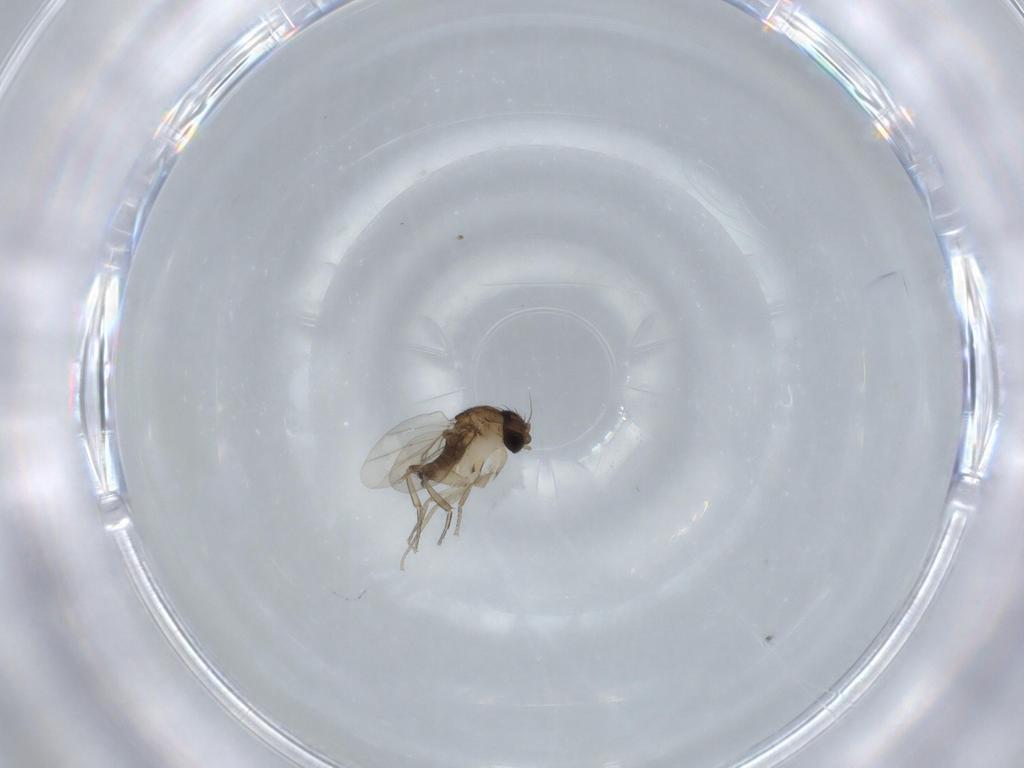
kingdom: Animalia
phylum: Arthropoda
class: Insecta
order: Diptera
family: Phoridae
